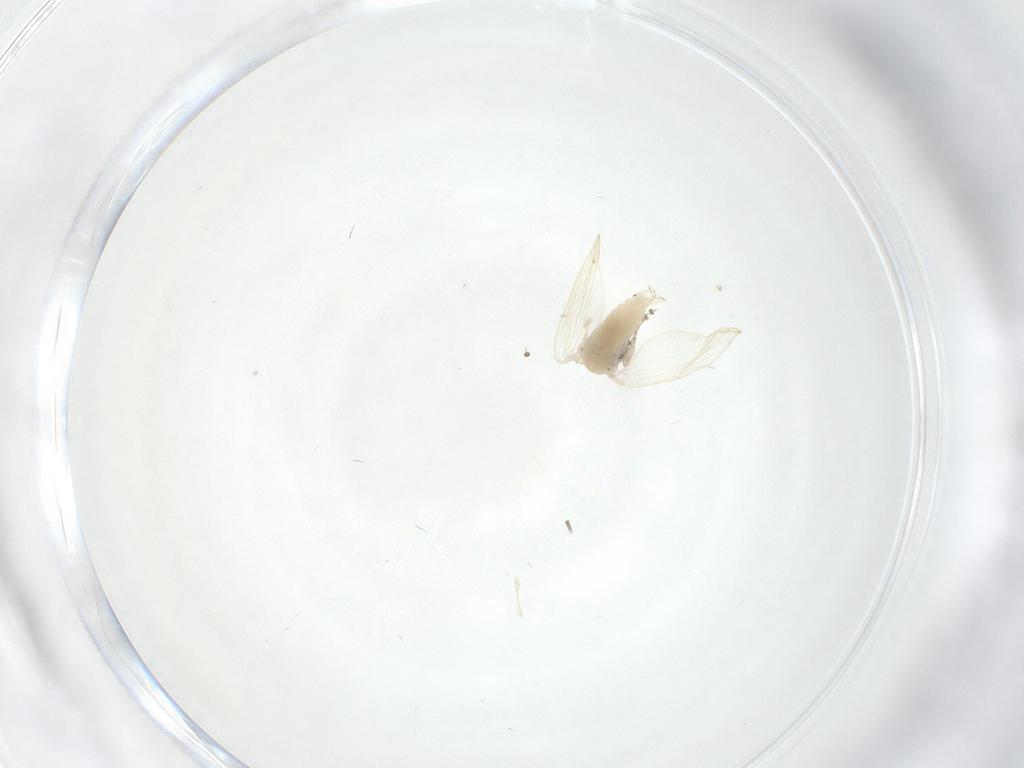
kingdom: Animalia
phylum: Arthropoda
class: Insecta
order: Diptera
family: Psychodidae
